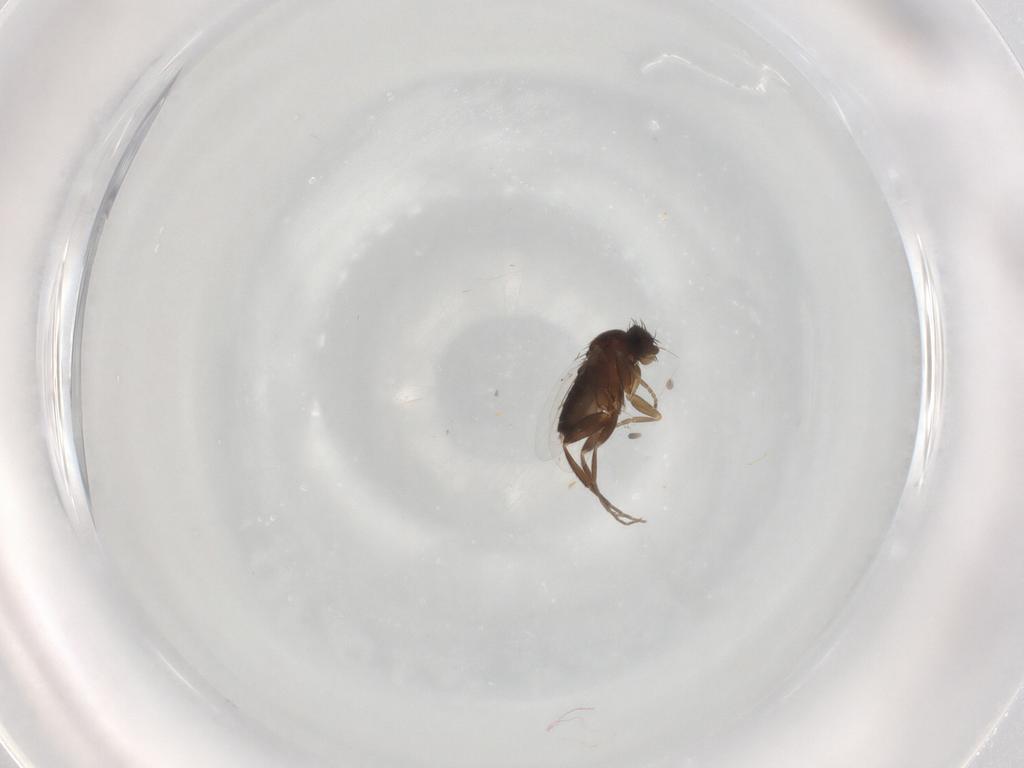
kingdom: Animalia
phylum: Arthropoda
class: Insecta
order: Diptera
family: Phoridae
